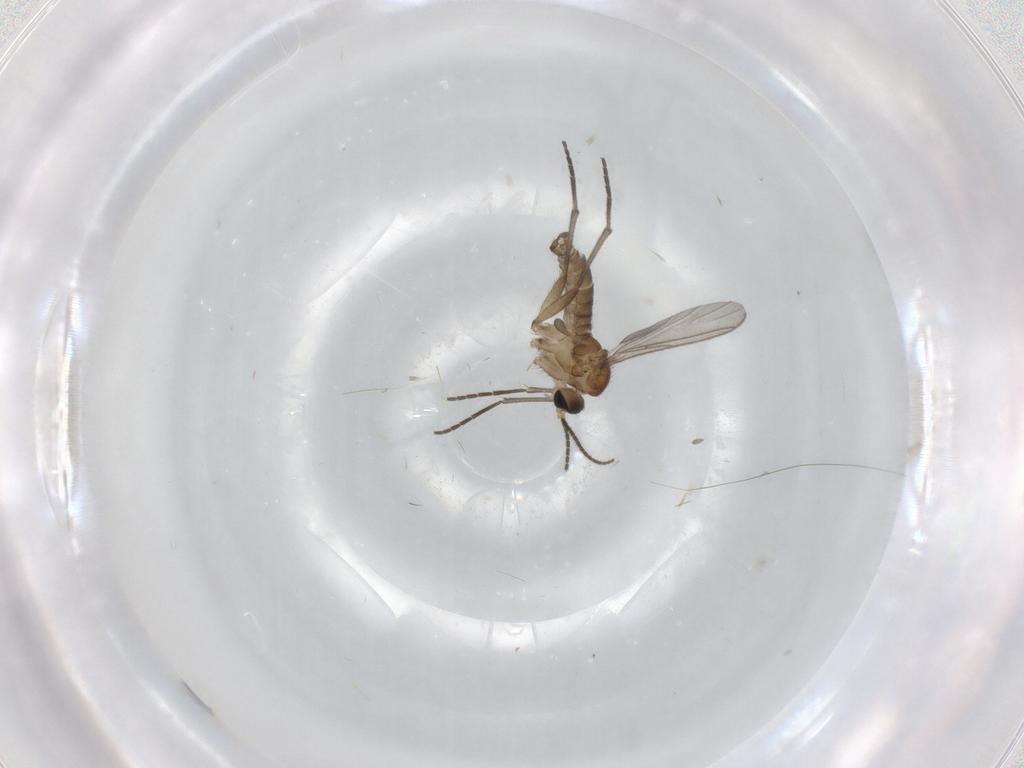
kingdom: Animalia
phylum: Arthropoda
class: Insecta
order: Diptera
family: Sciaridae
